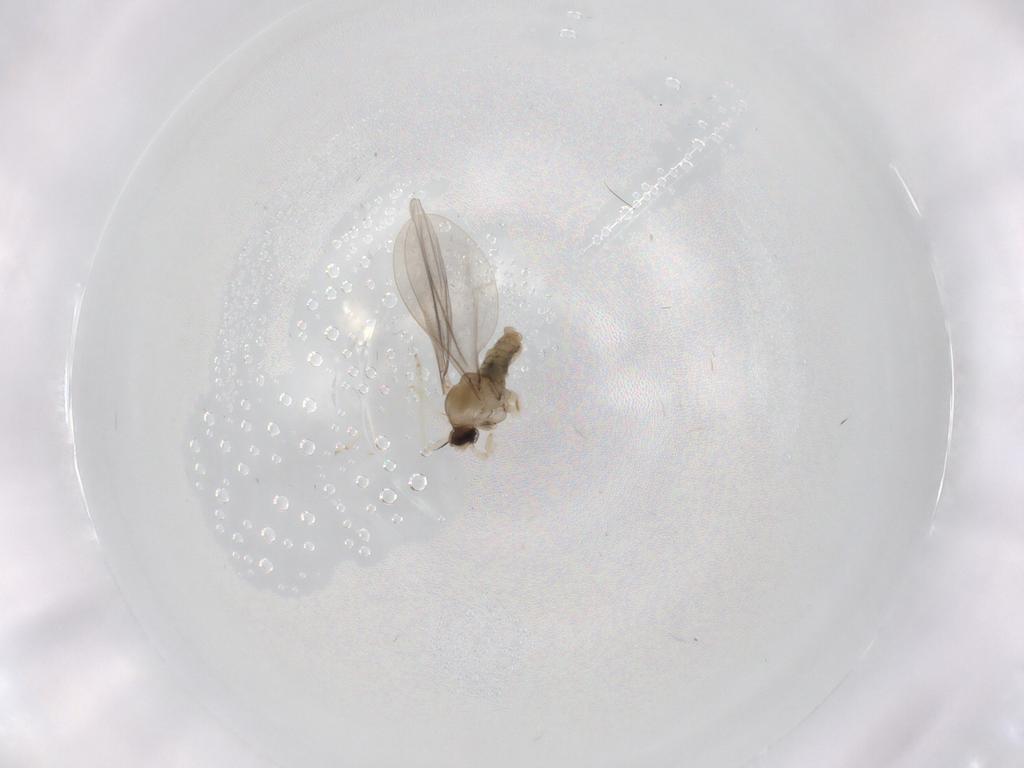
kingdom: Animalia
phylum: Arthropoda
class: Insecta
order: Diptera
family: Cecidomyiidae
